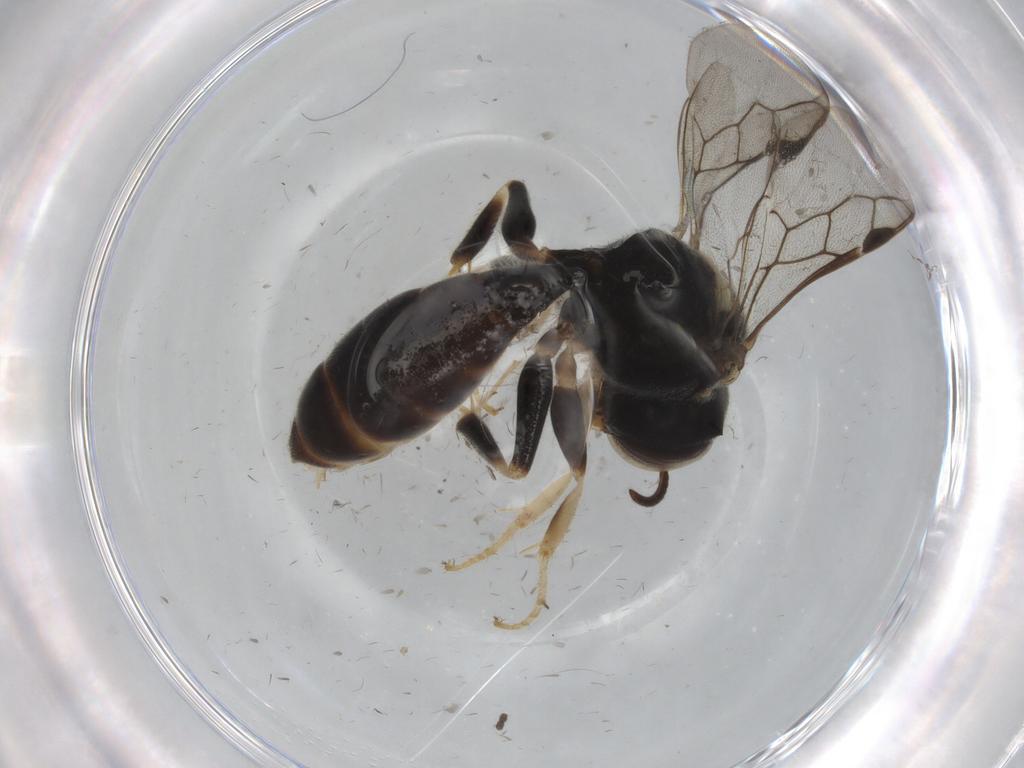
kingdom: Animalia
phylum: Arthropoda
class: Insecta
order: Hymenoptera
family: Crabronidae
